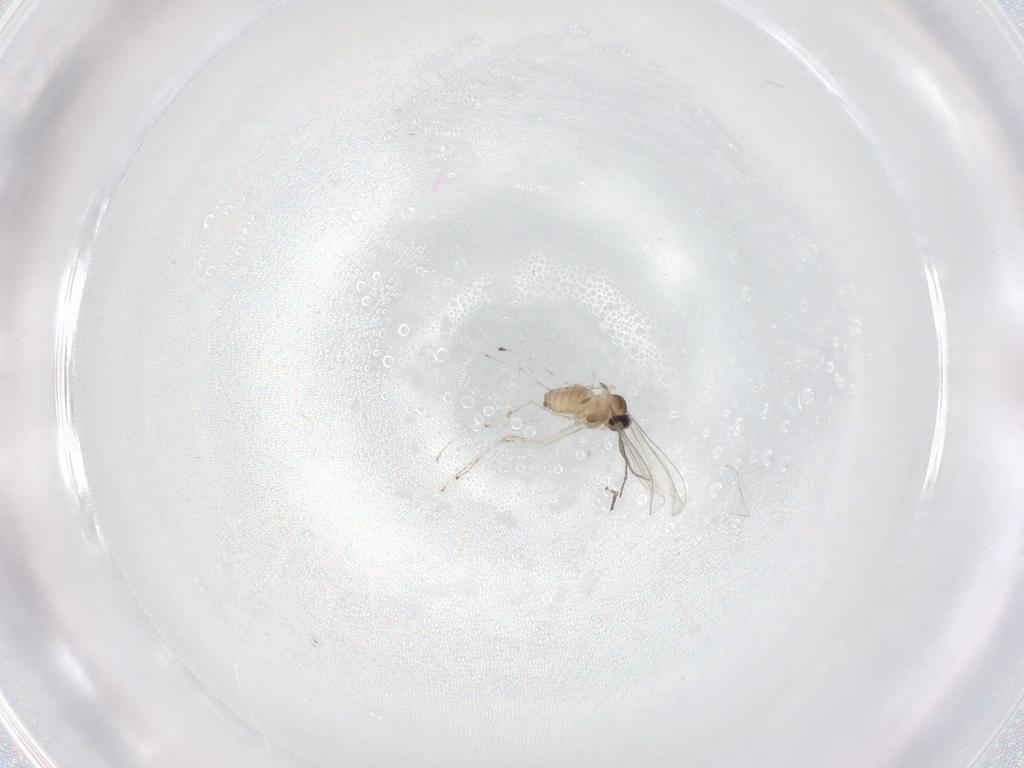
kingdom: Animalia
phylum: Arthropoda
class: Insecta
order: Diptera
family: Cecidomyiidae
